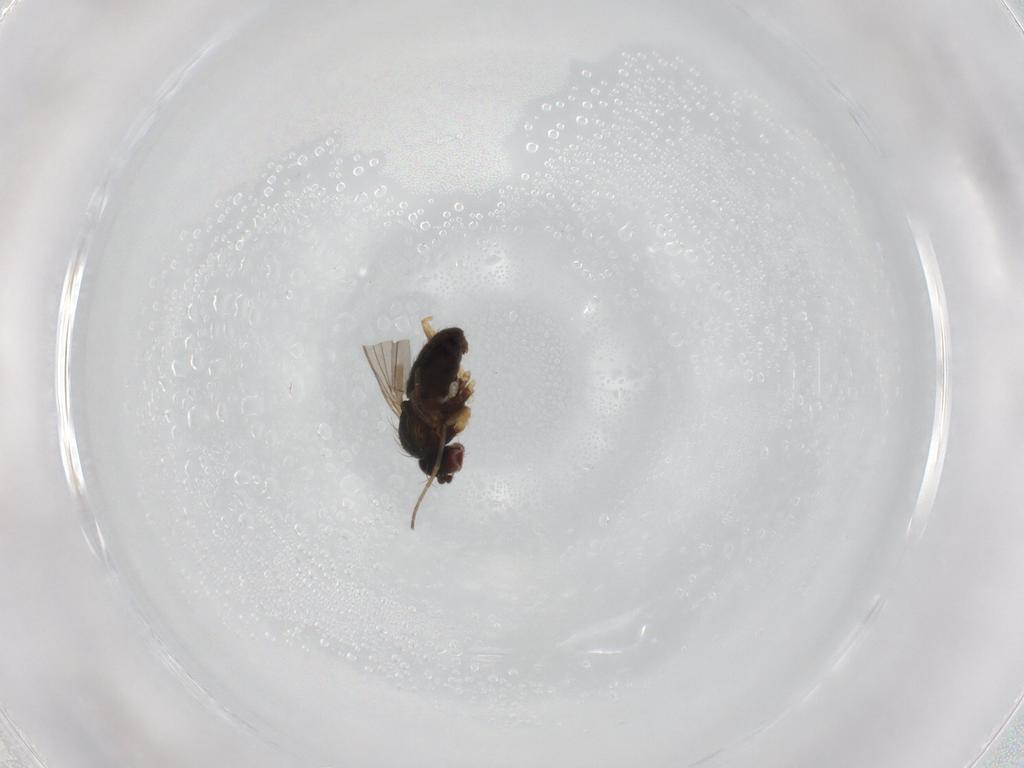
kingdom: Animalia
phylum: Arthropoda
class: Insecta
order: Diptera
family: Dolichopodidae
